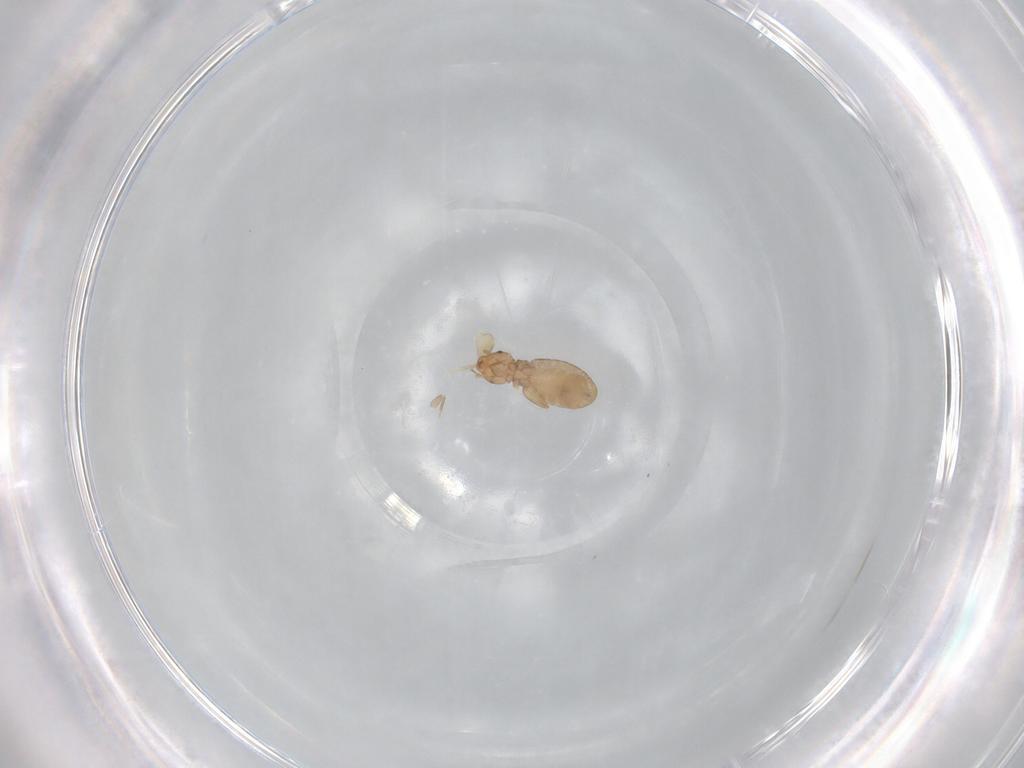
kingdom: Animalia
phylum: Arthropoda
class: Insecta
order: Psocodea
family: Liposcelididae
